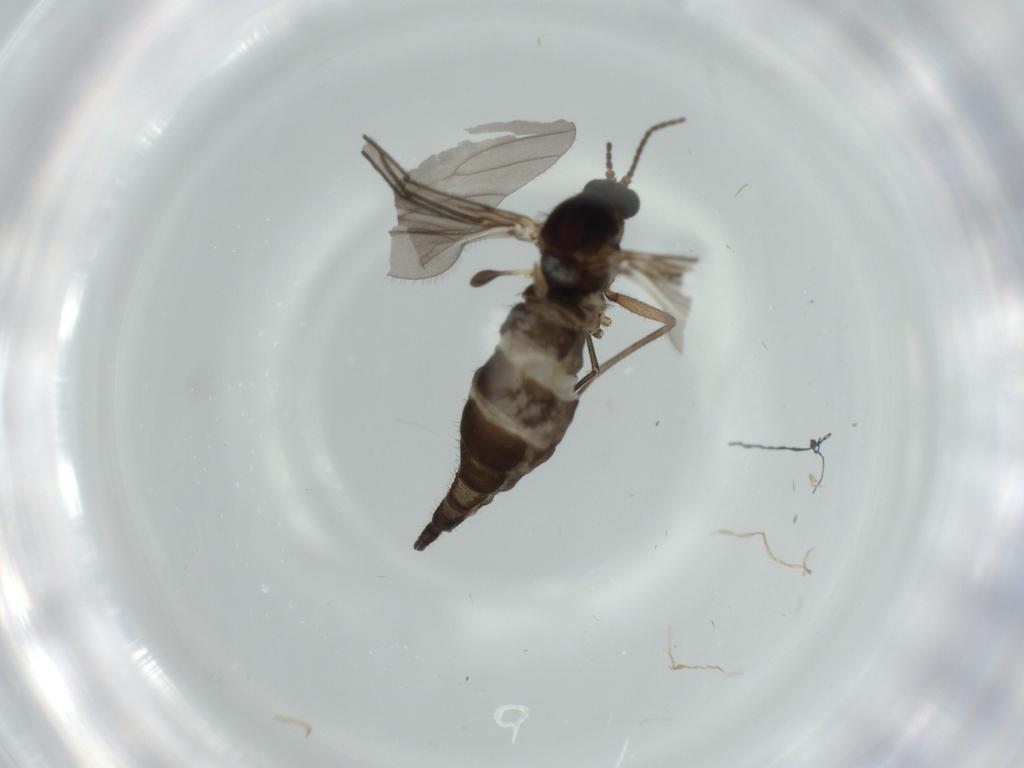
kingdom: Animalia
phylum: Arthropoda
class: Insecta
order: Diptera
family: Sciaridae
